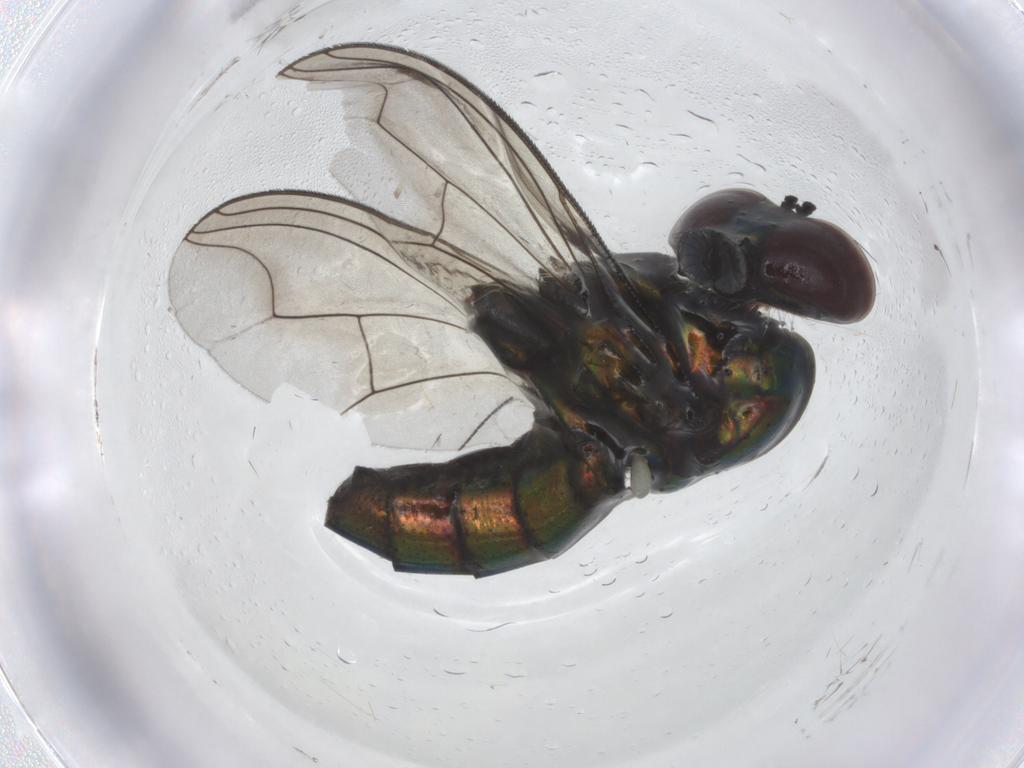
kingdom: Animalia
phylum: Arthropoda
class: Insecta
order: Diptera
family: Dolichopodidae
